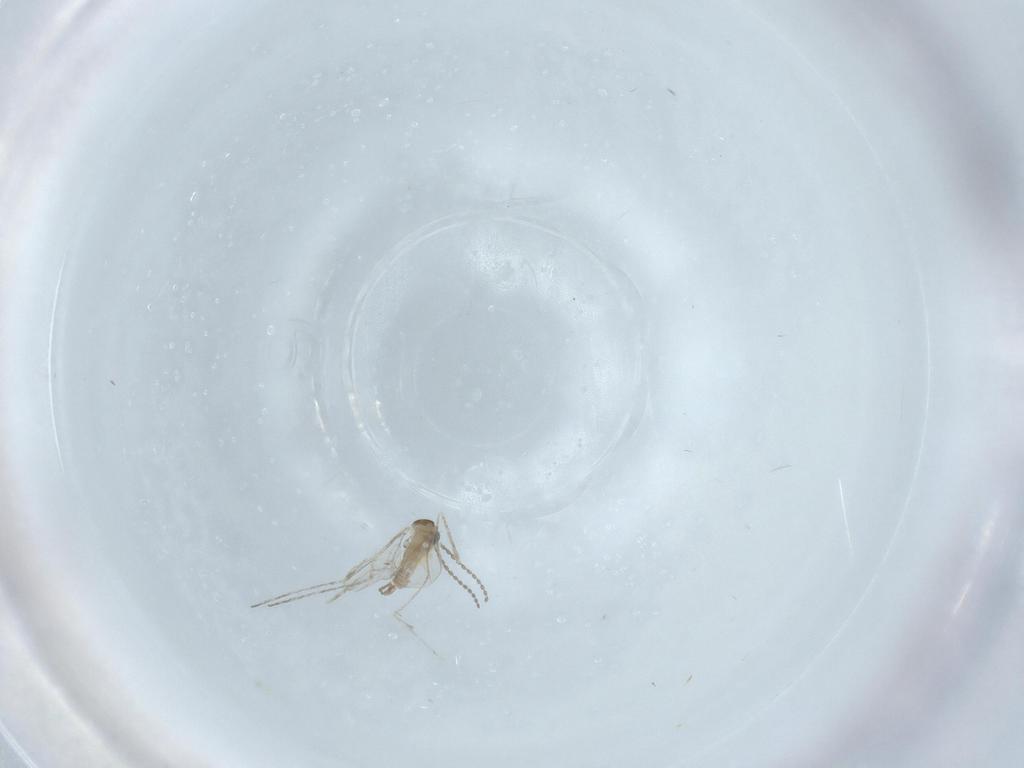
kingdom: Animalia
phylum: Arthropoda
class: Insecta
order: Diptera
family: Cecidomyiidae
